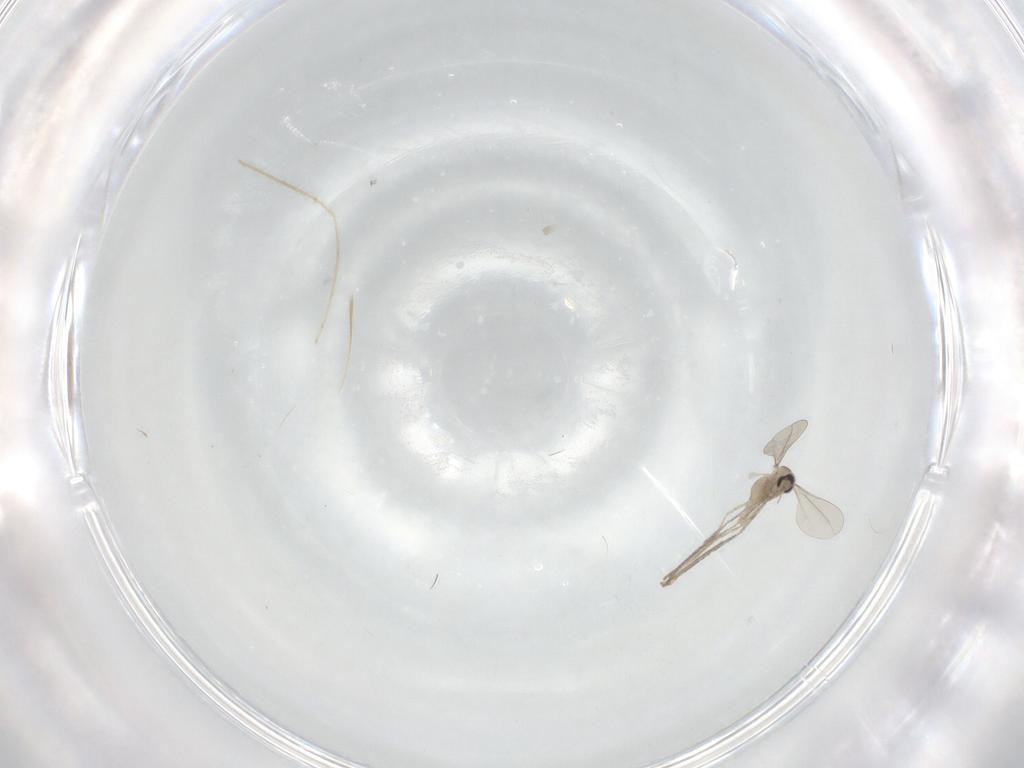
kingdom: Animalia
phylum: Arthropoda
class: Insecta
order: Diptera
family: Cecidomyiidae
